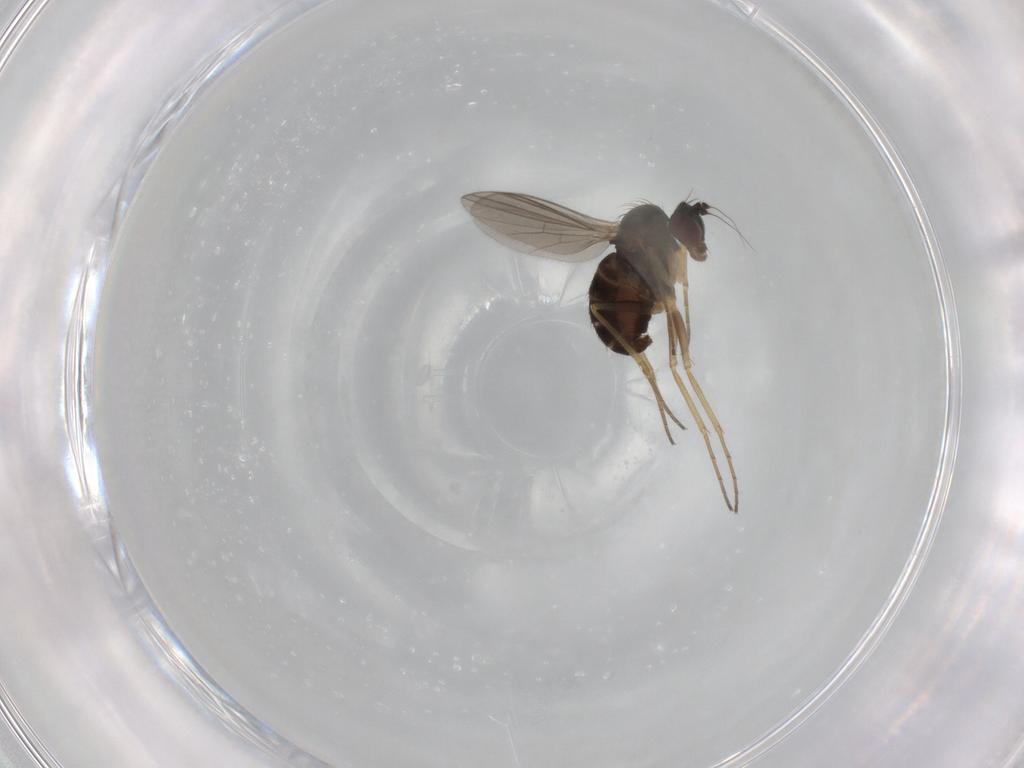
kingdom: Animalia
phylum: Arthropoda
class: Insecta
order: Diptera
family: Dolichopodidae
